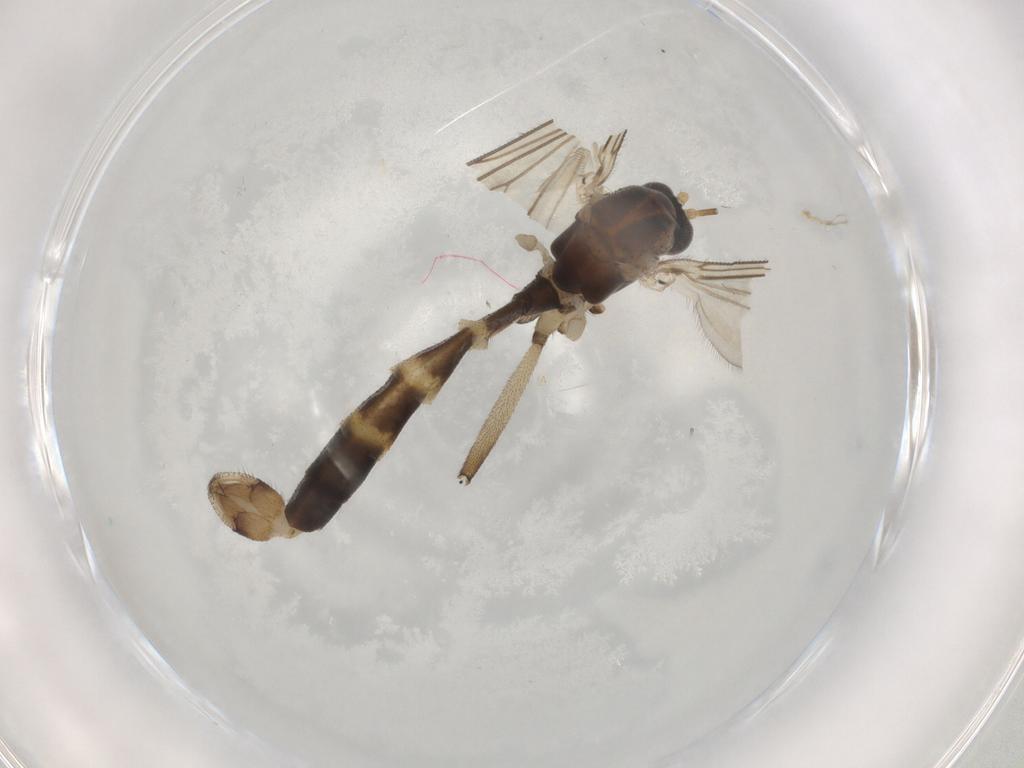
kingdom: Animalia
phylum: Arthropoda
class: Insecta
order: Diptera
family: Mycetophilidae
